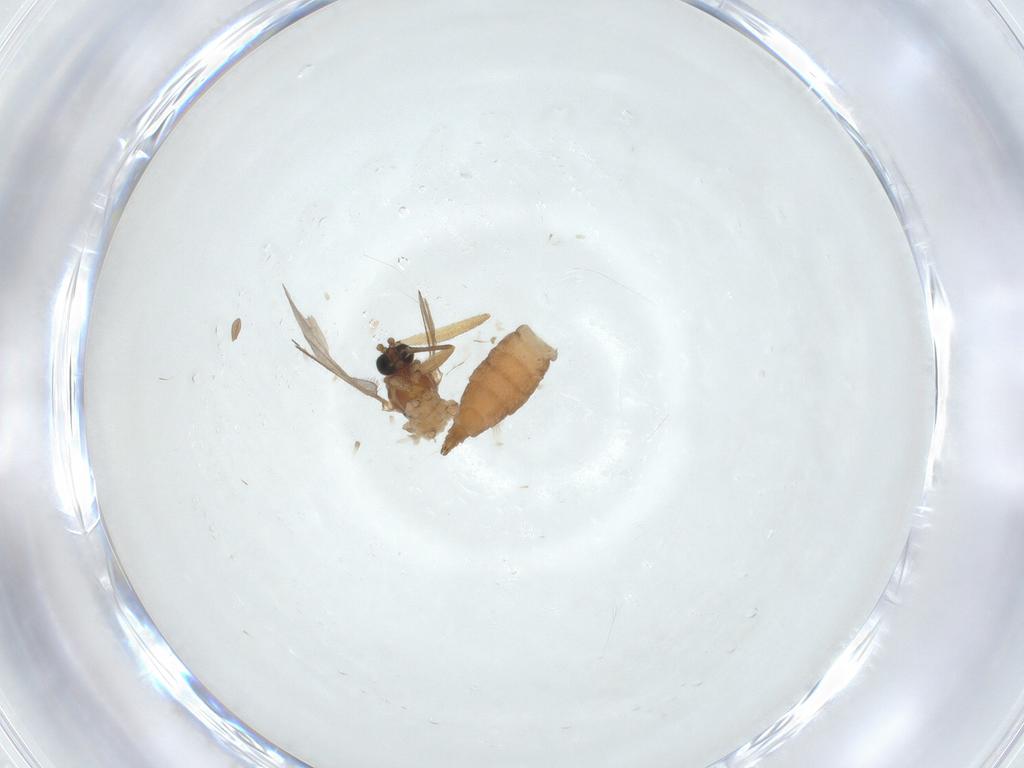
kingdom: Animalia
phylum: Arthropoda
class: Insecta
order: Diptera
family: Sciaridae
